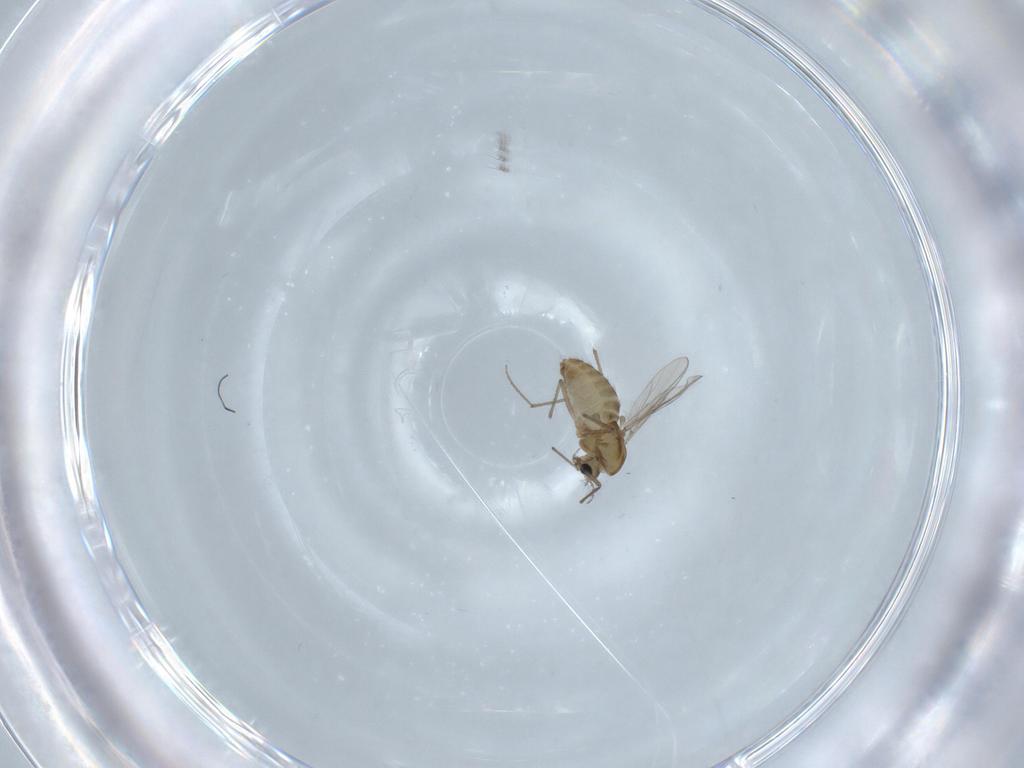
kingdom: Animalia
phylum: Arthropoda
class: Insecta
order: Diptera
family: Chironomidae
